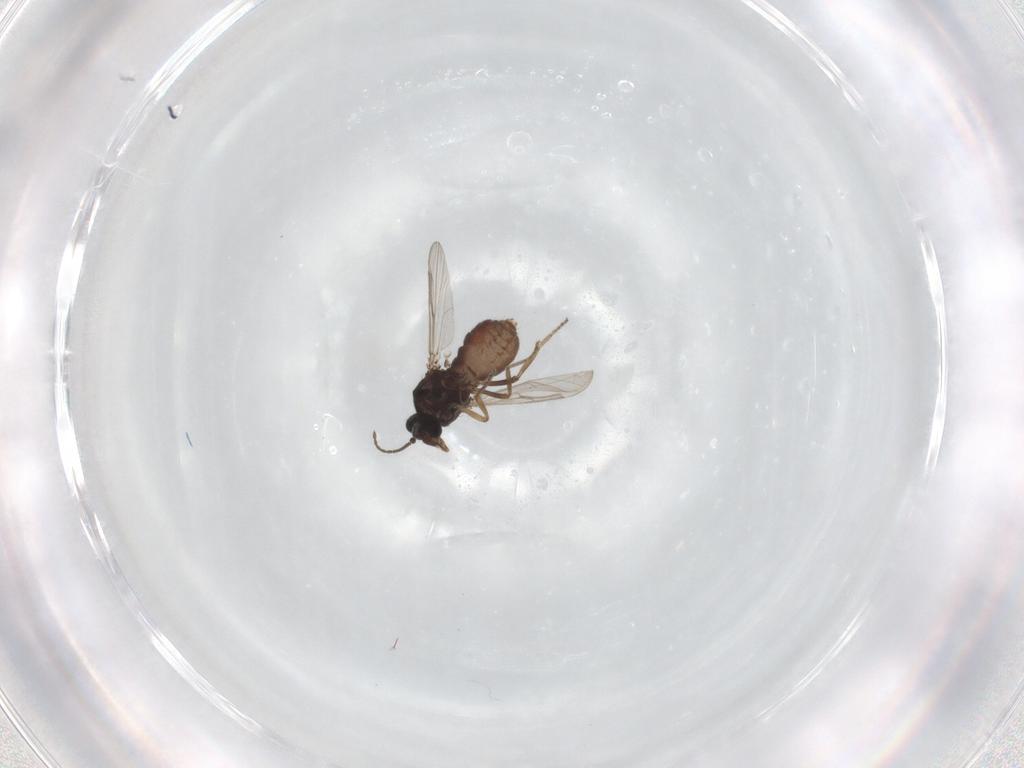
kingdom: Animalia
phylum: Arthropoda
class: Insecta
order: Diptera
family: Ceratopogonidae
